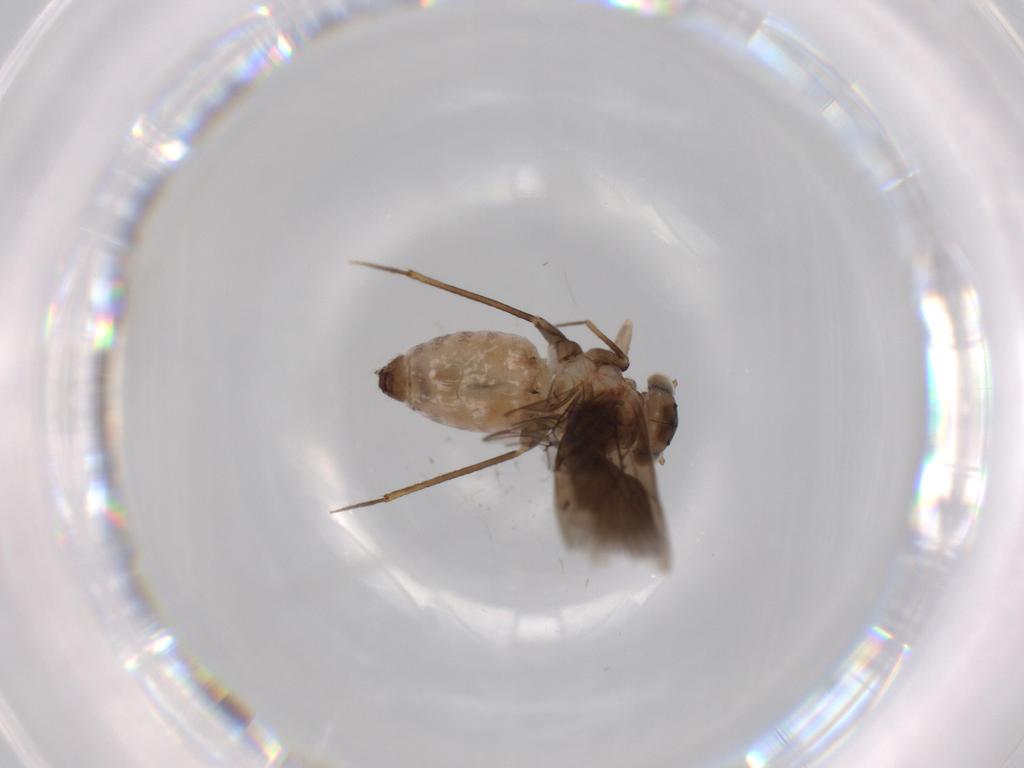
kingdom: Animalia
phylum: Arthropoda
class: Insecta
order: Psocodea
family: Lepidopsocidae
